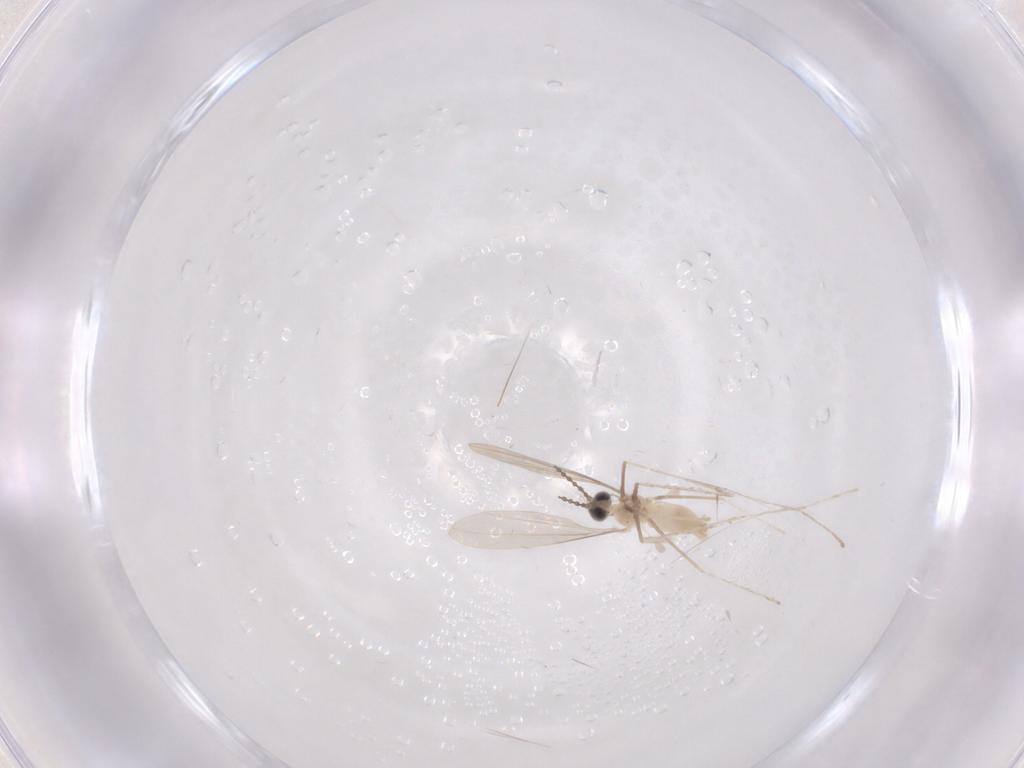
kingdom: Animalia
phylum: Arthropoda
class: Insecta
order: Diptera
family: Cecidomyiidae
